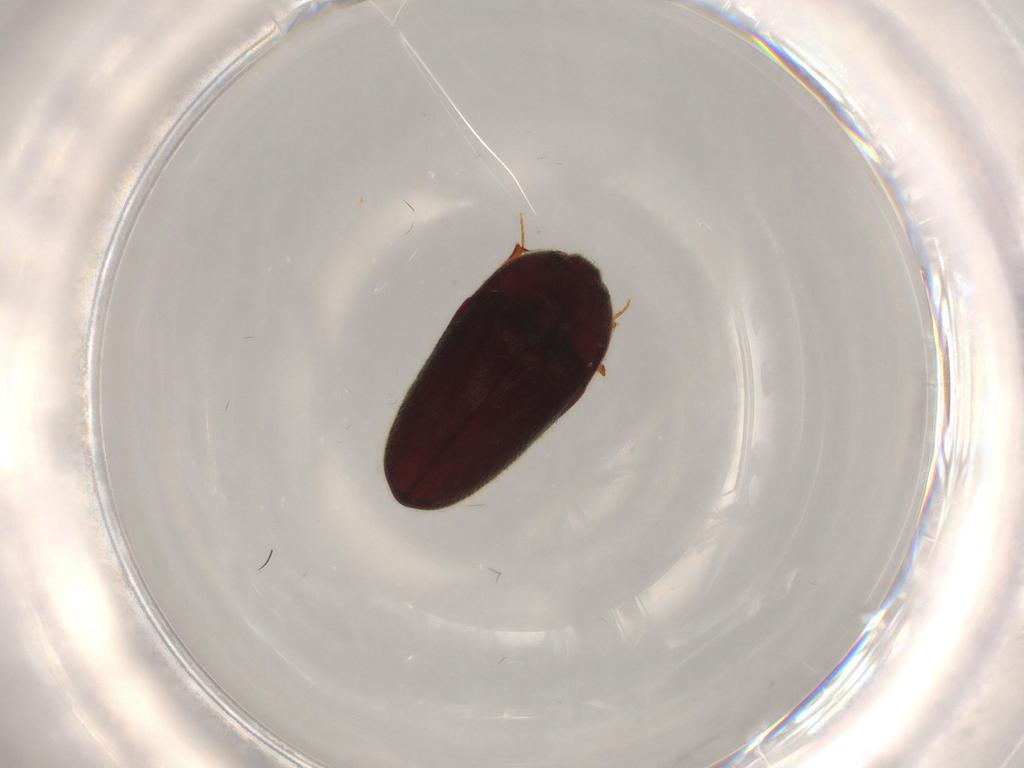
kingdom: Animalia
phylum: Arthropoda
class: Insecta
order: Coleoptera
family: Throscidae
